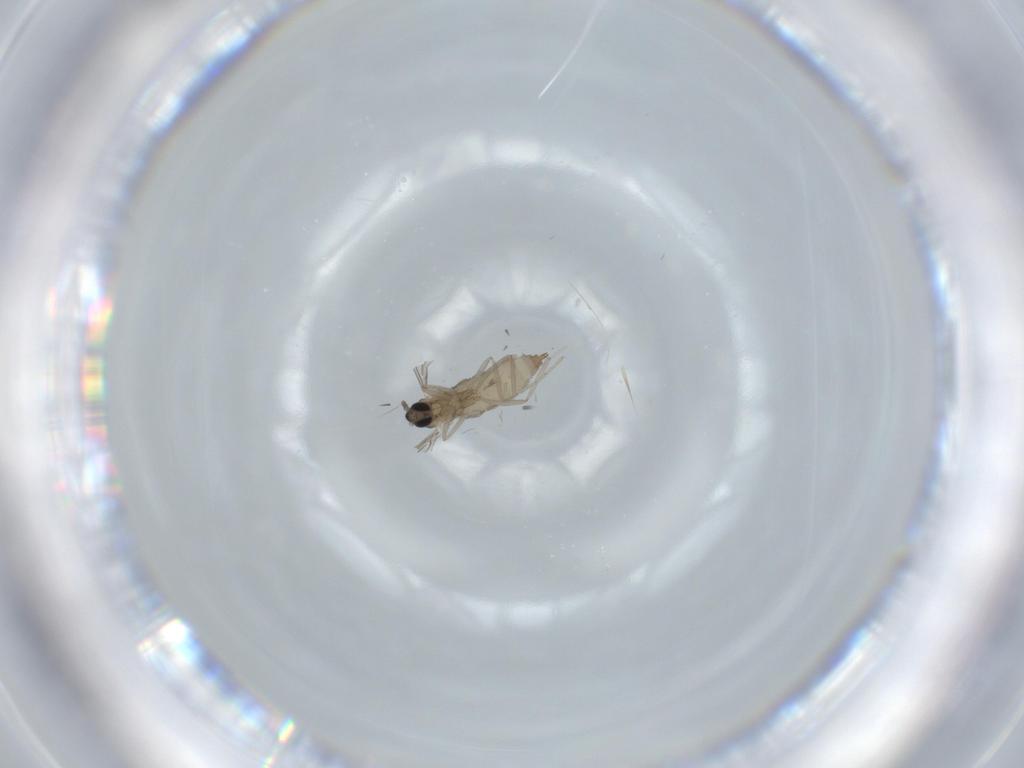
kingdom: Animalia
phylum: Arthropoda
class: Insecta
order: Diptera
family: Cecidomyiidae
